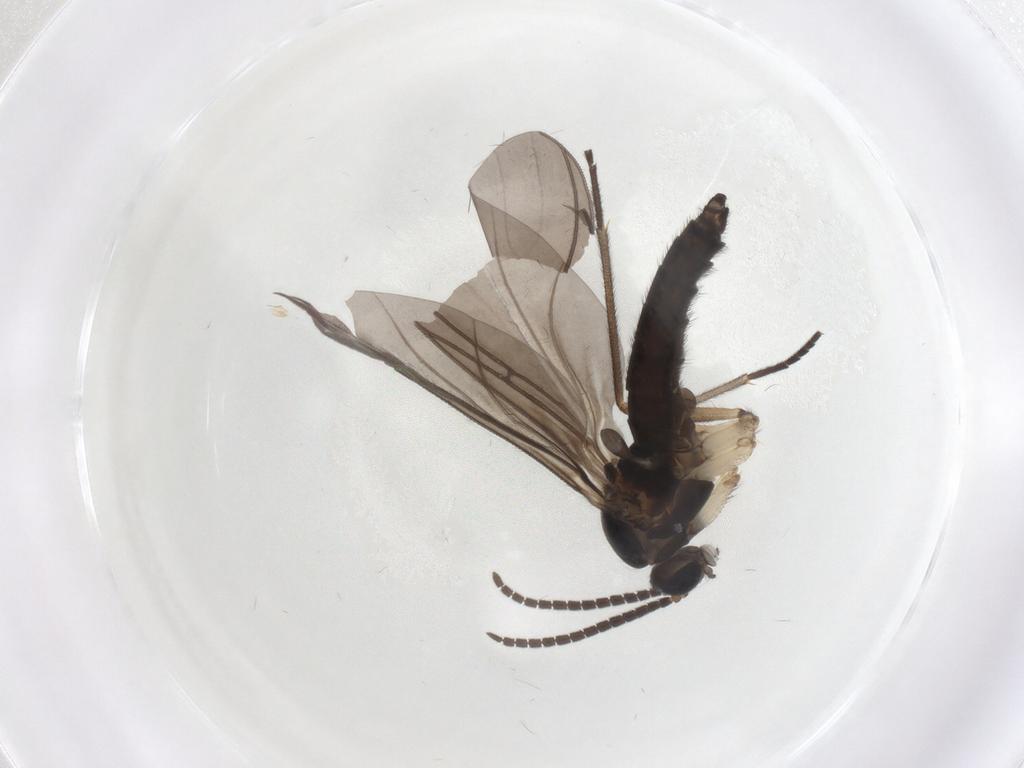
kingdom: Animalia
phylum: Arthropoda
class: Insecta
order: Diptera
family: Sciaridae
